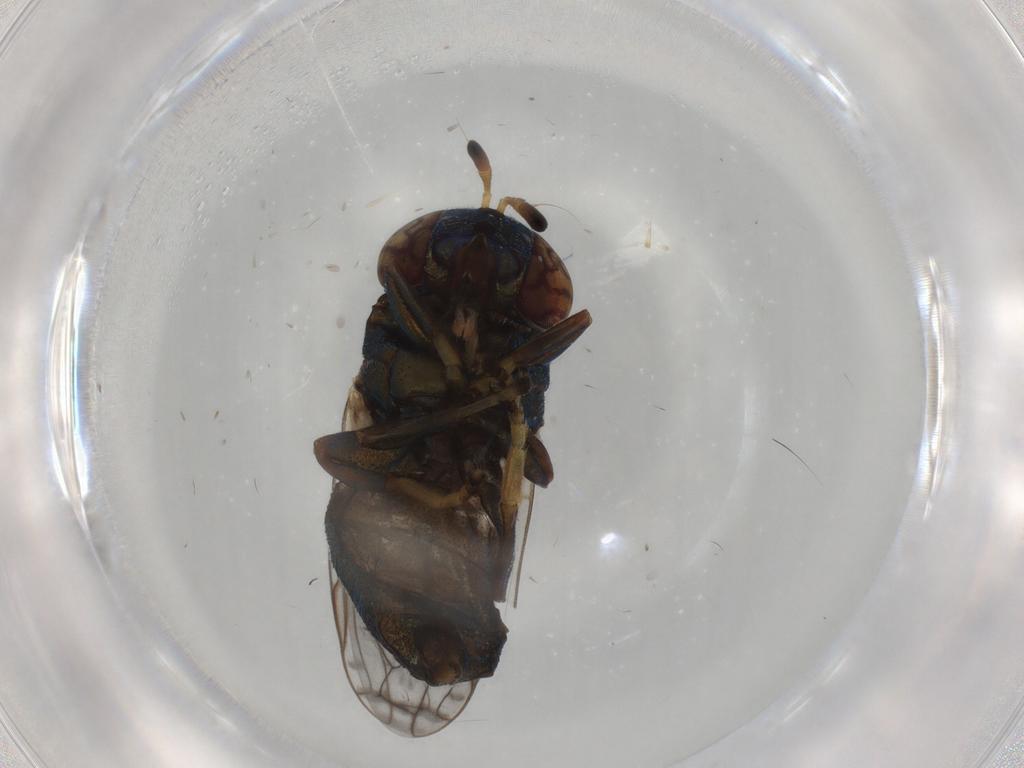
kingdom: Animalia
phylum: Arthropoda
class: Insecta
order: Diptera
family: Syrphidae
